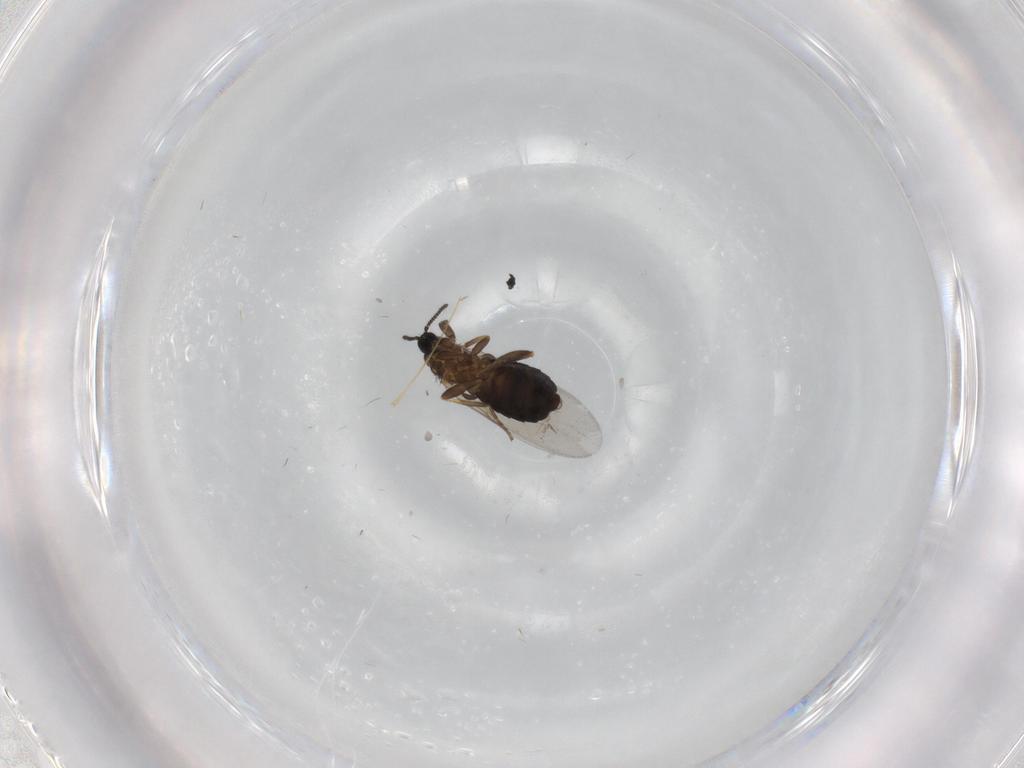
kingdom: Animalia
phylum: Arthropoda
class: Insecta
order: Diptera
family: Scatopsidae
